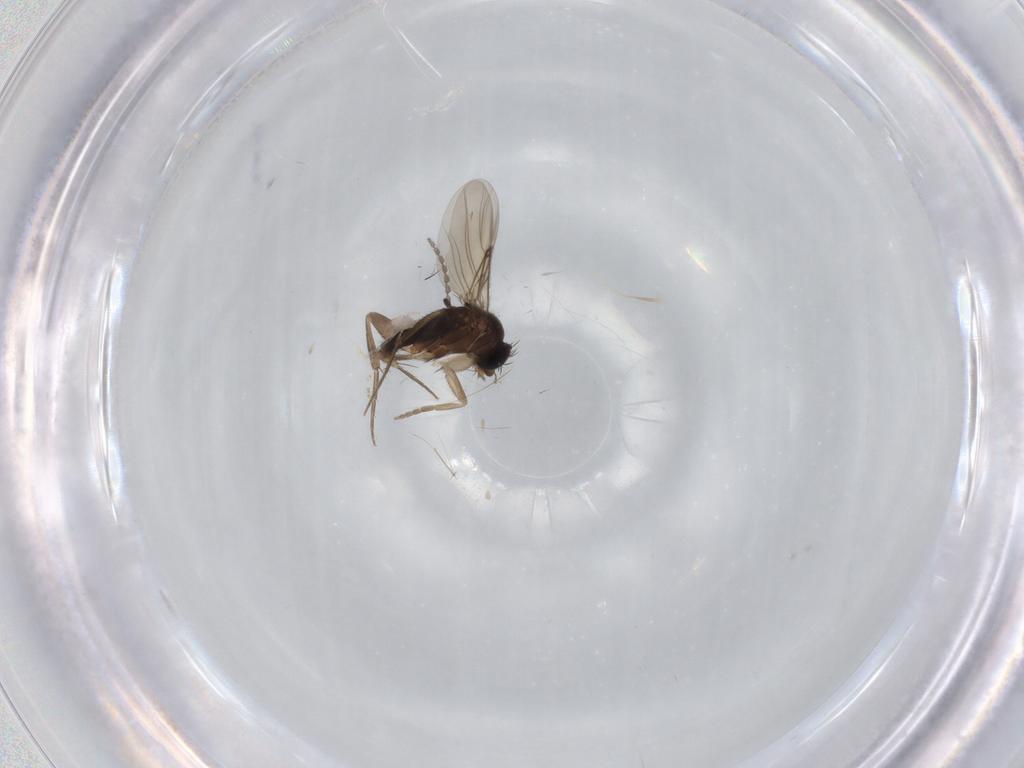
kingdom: Animalia
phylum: Arthropoda
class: Insecta
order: Diptera
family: Phoridae
